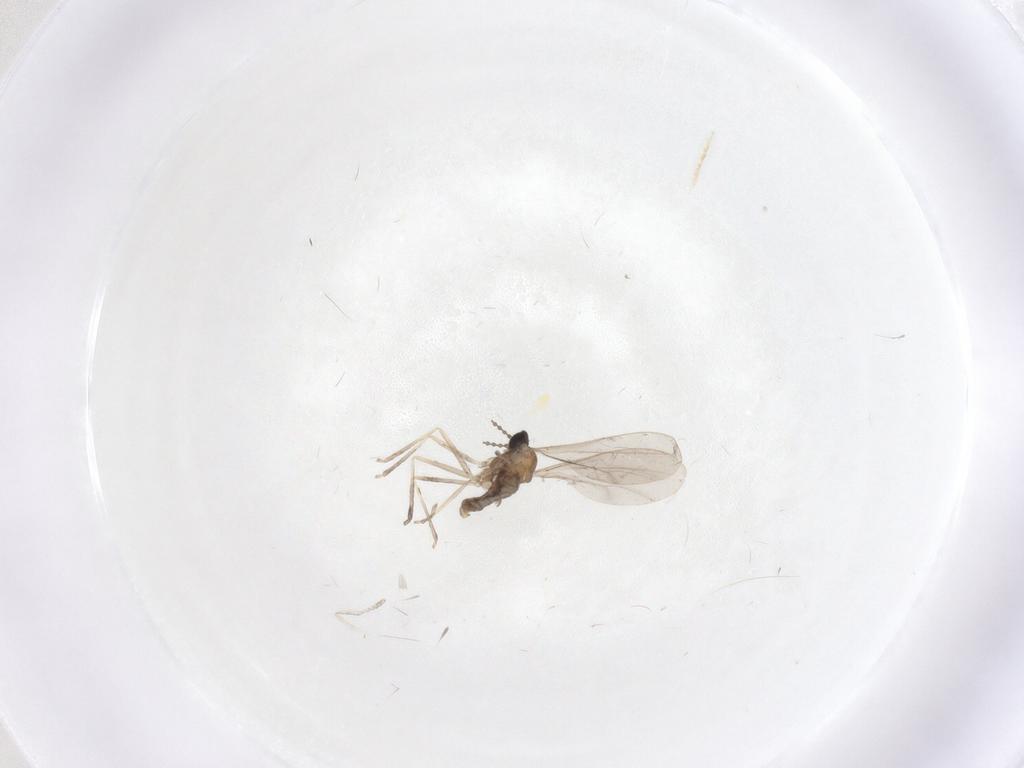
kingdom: Animalia
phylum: Arthropoda
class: Insecta
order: Diptera
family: Cecidomyiidae
